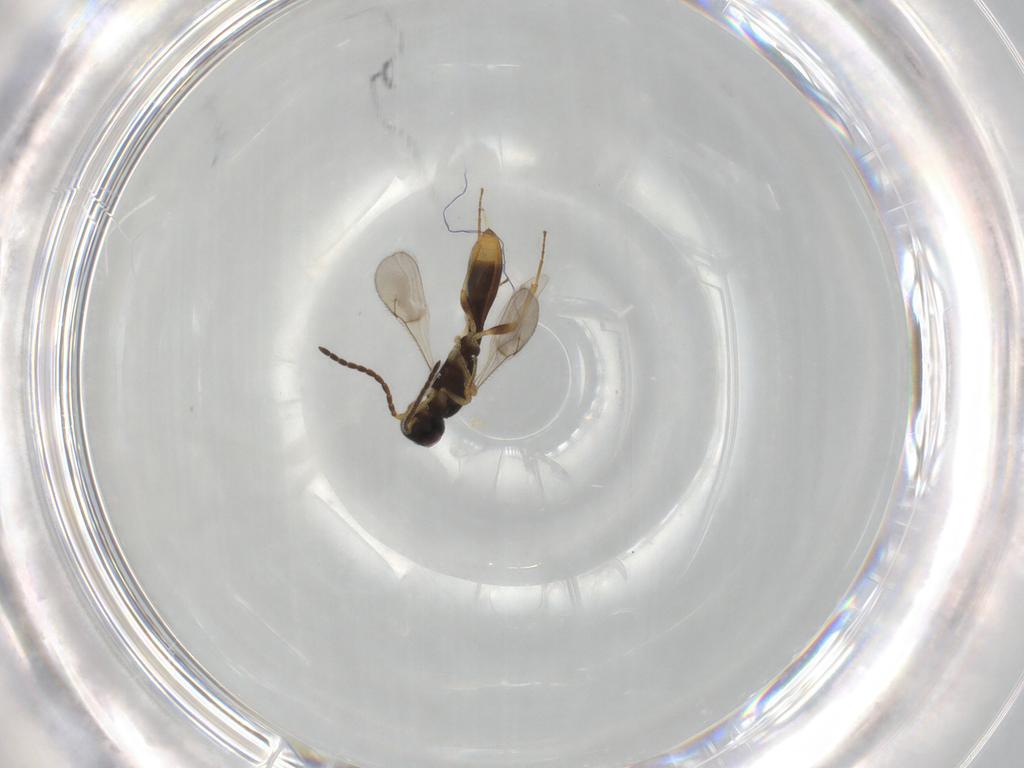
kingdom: Animalia
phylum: Arthropoda
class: Insecta
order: Hymenoptera
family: Scelionidae
